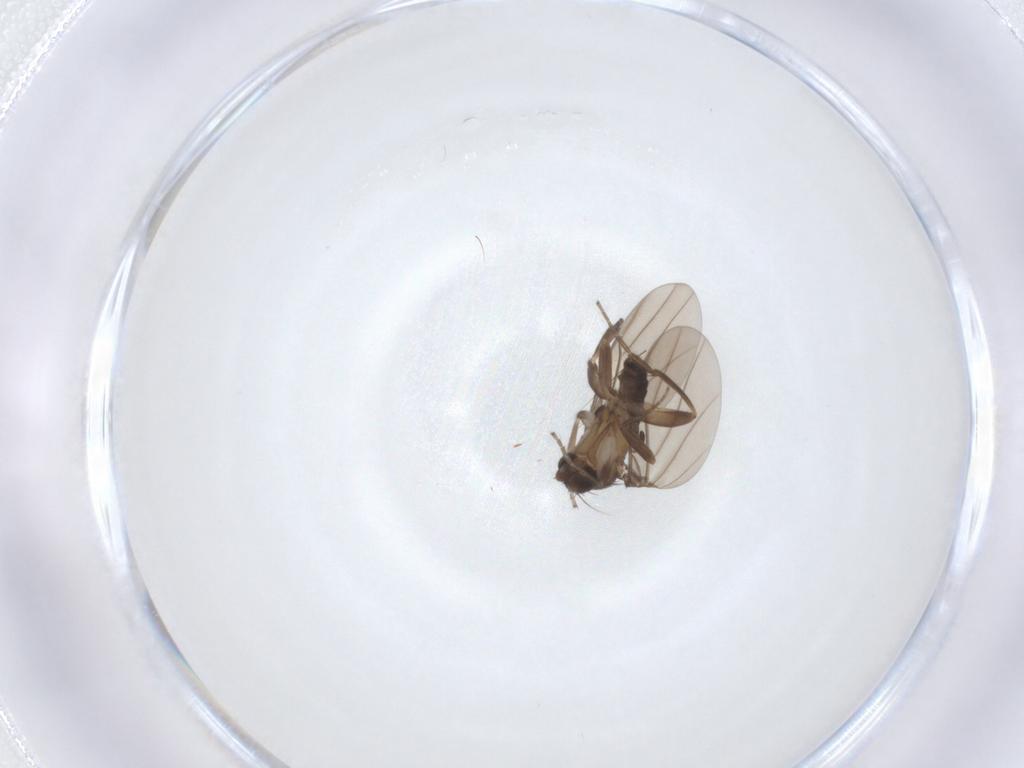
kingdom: Animalia
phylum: Arthropoda
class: Insecta
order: Diptera
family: Cecidomyiidae
